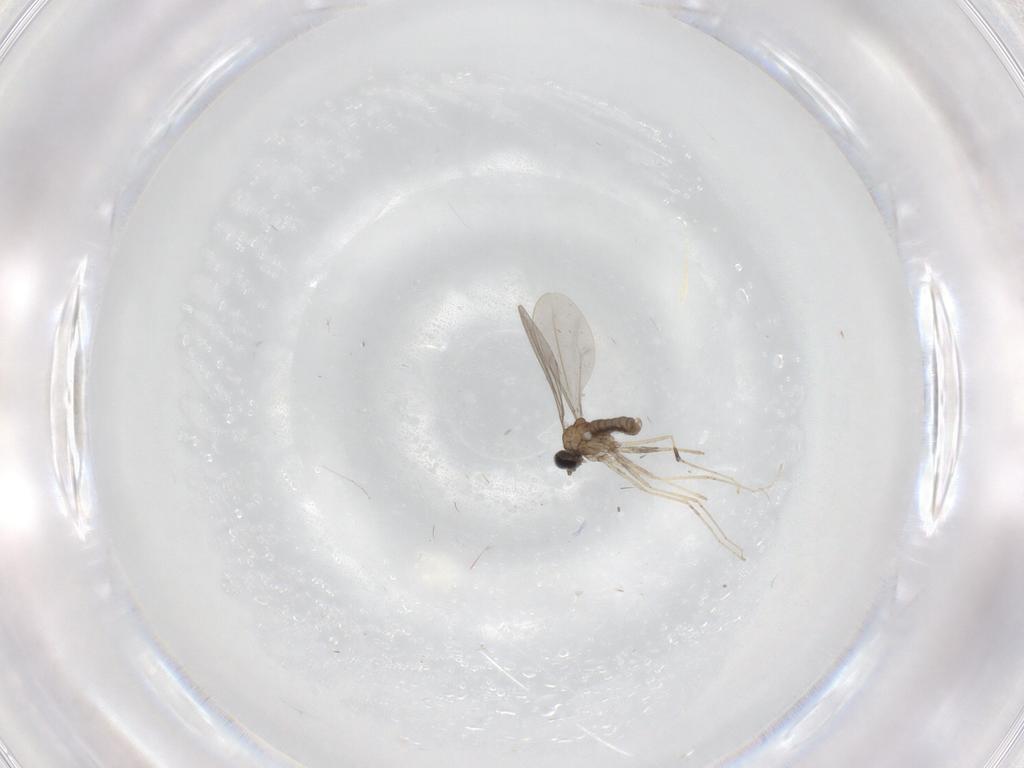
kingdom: Animalia
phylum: Arthropoda
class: Insecta
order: Diptera
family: Cecidomyiidae
